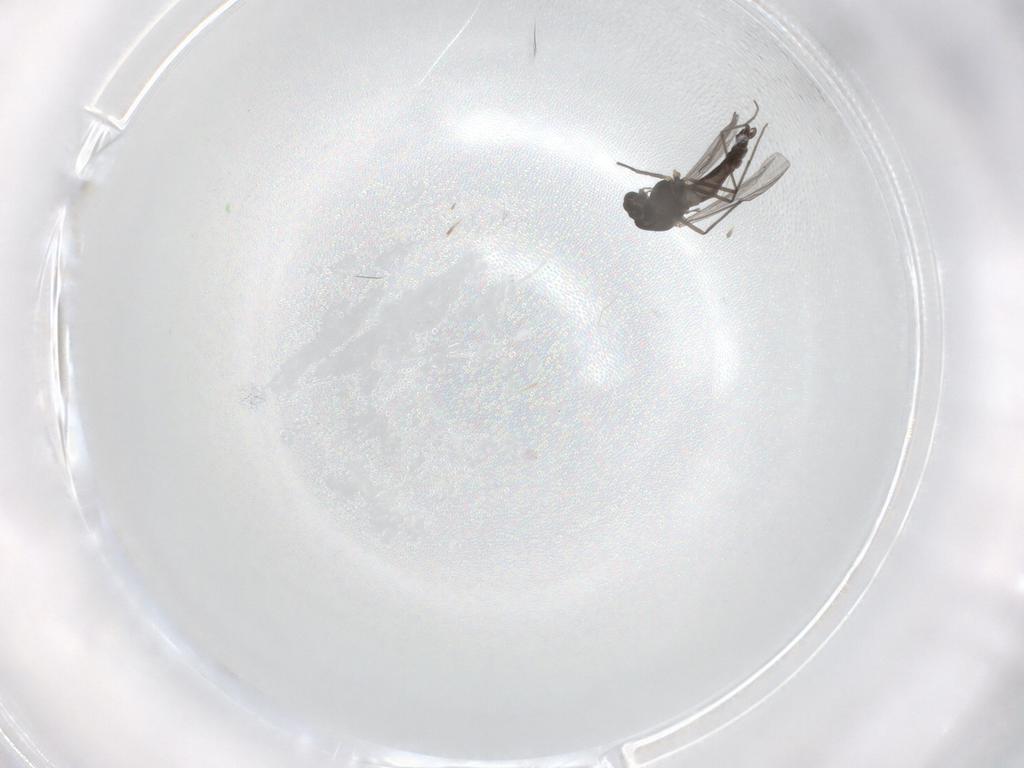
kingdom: Animalia
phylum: Arthropoda
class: Insecta
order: Diptera
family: Chironomidae
